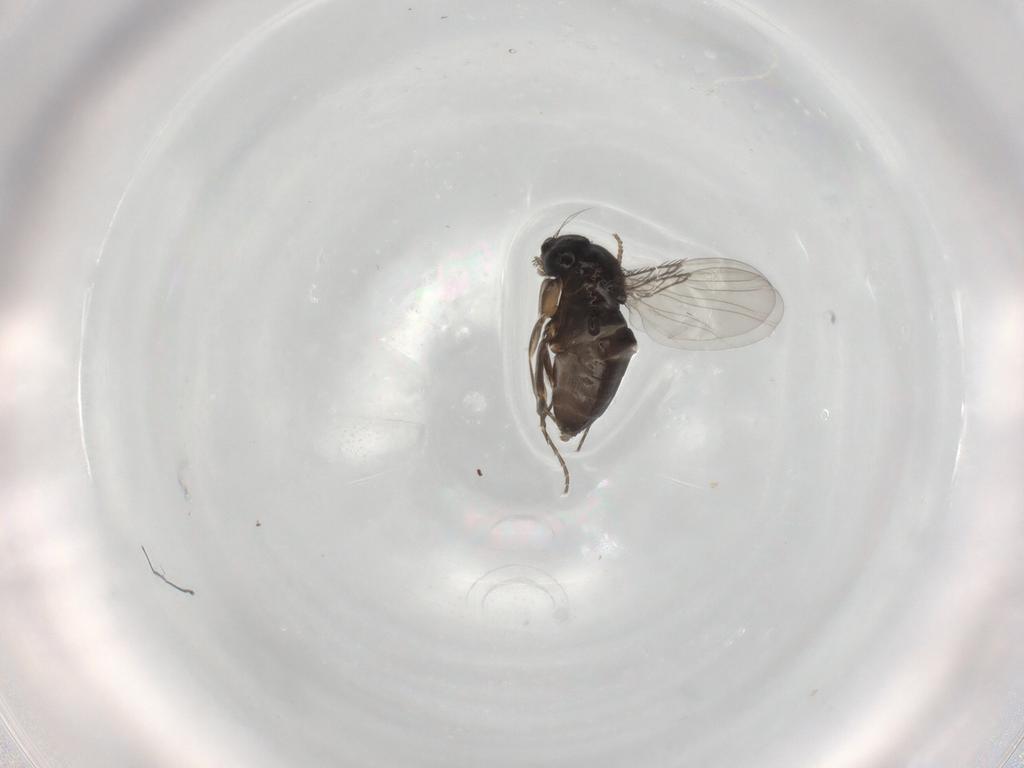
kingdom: Animalia
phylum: Arthropoda
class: Insecta
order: Diptera
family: Phoridae
